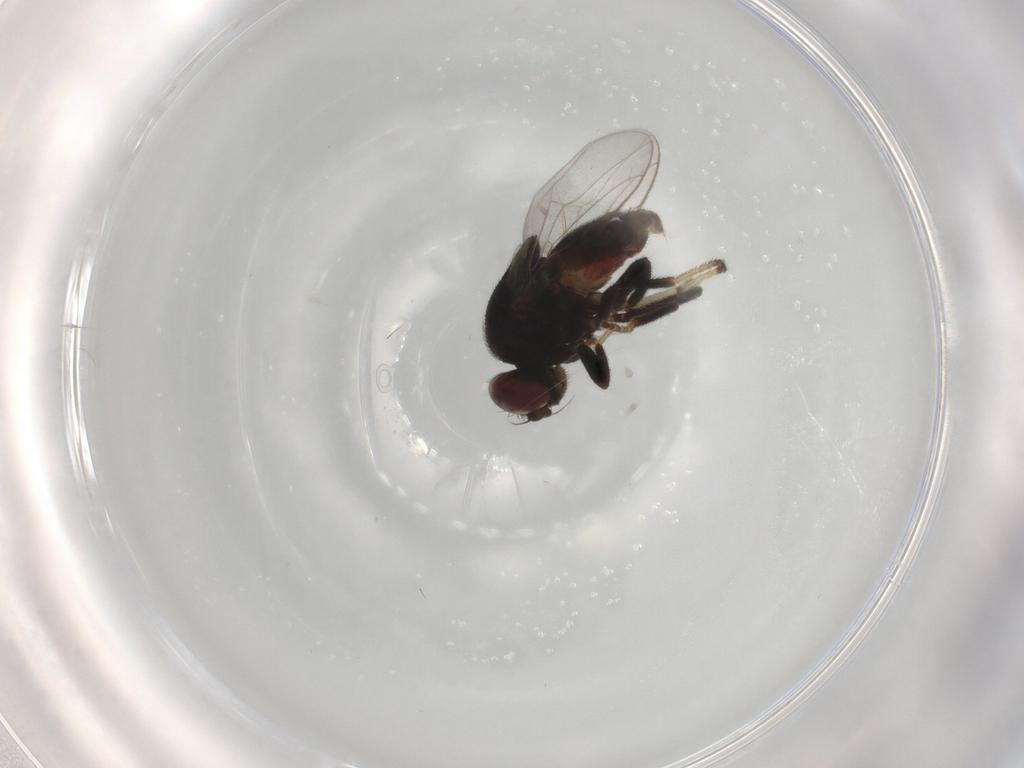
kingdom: Animalia
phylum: Arthropoda
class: Insecta
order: Diptera
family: Chloropidae
